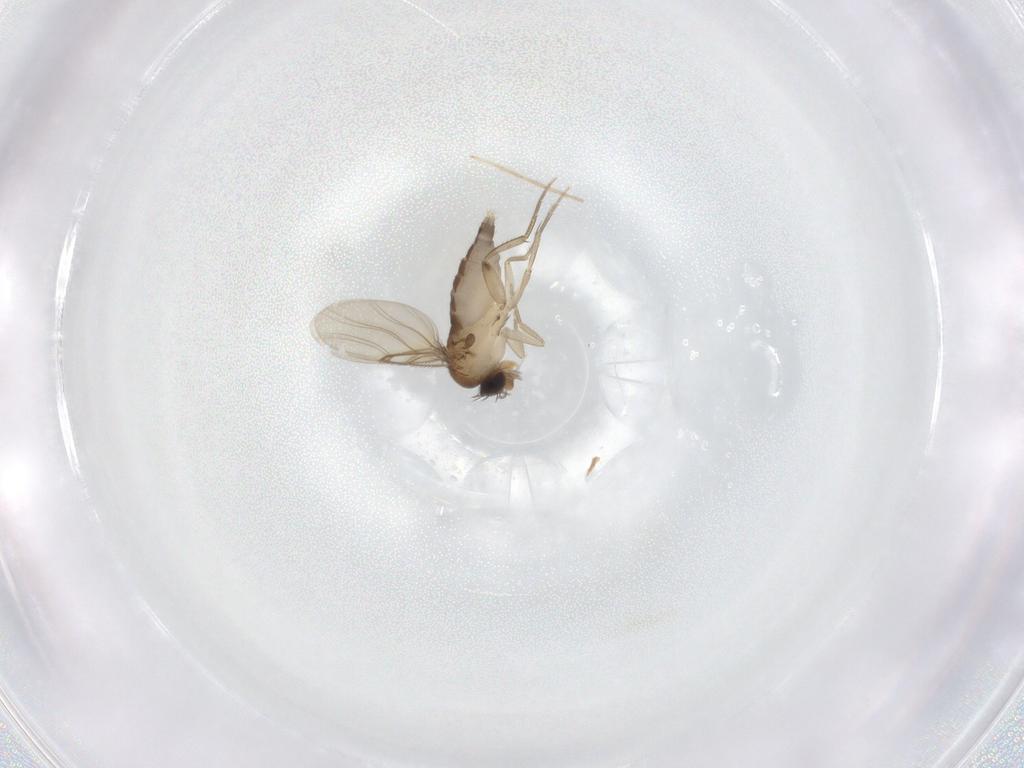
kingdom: Animalia
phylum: Arthropoda
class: Insecta
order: Diptera
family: Phoridae
